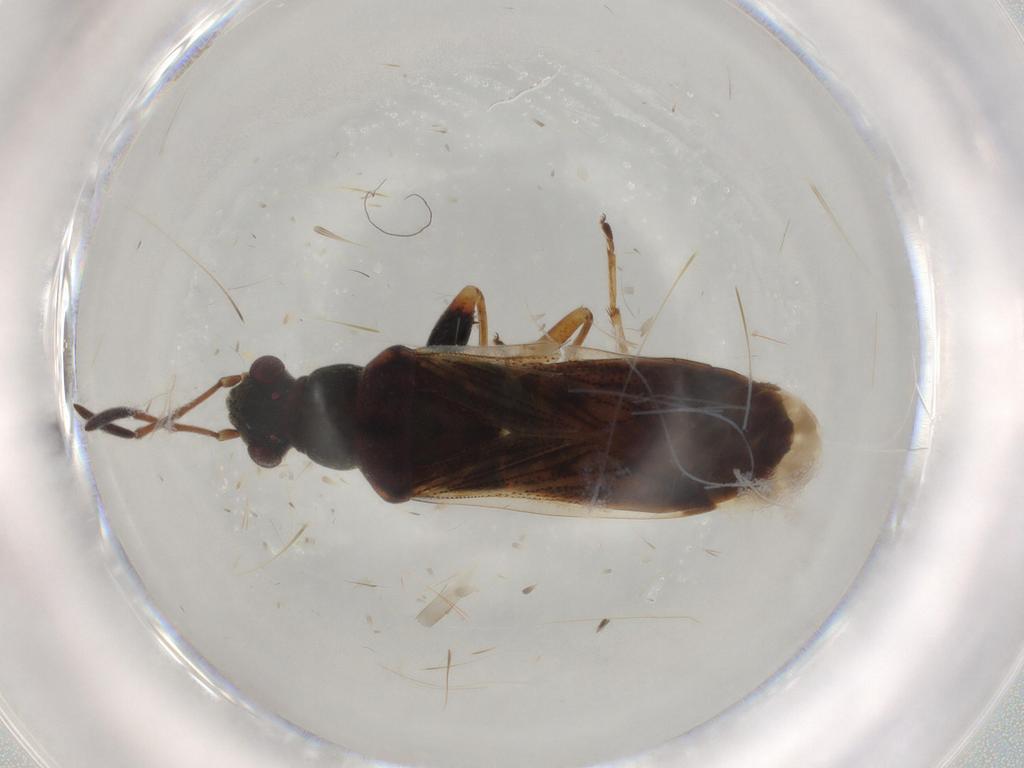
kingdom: Animalia
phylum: Arthropoda
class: Insecta
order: Hemiptera
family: Rhyparochromidae
